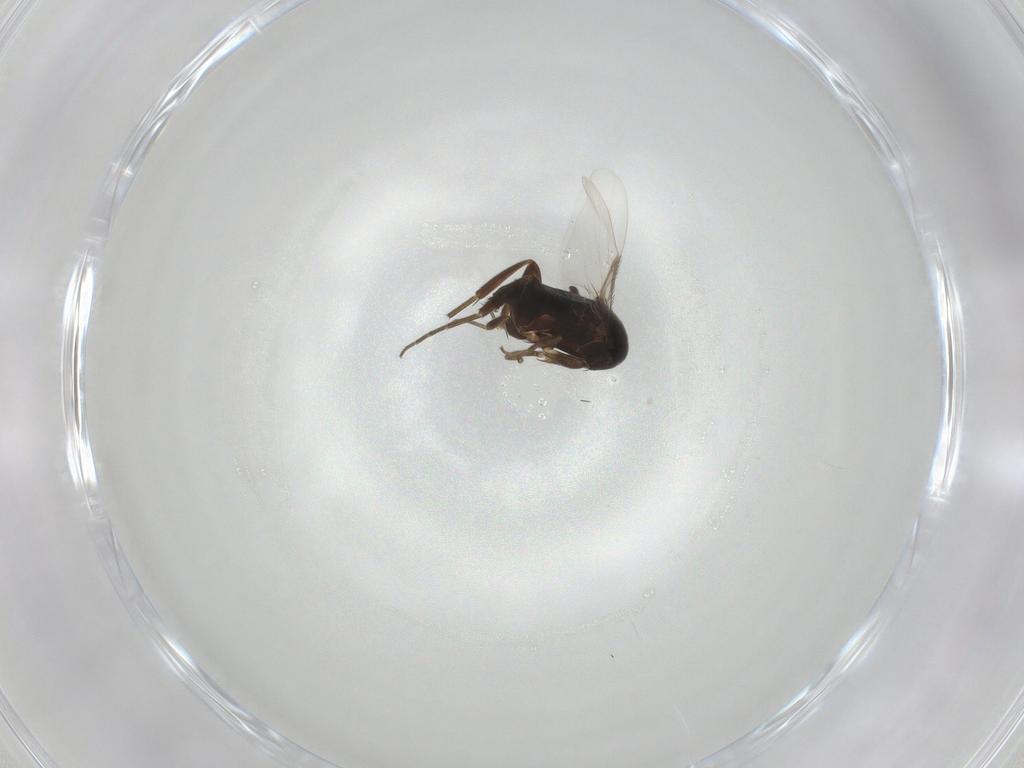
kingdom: Animalia
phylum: Arthropoda
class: Insecta
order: Diptera
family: Phoridae
